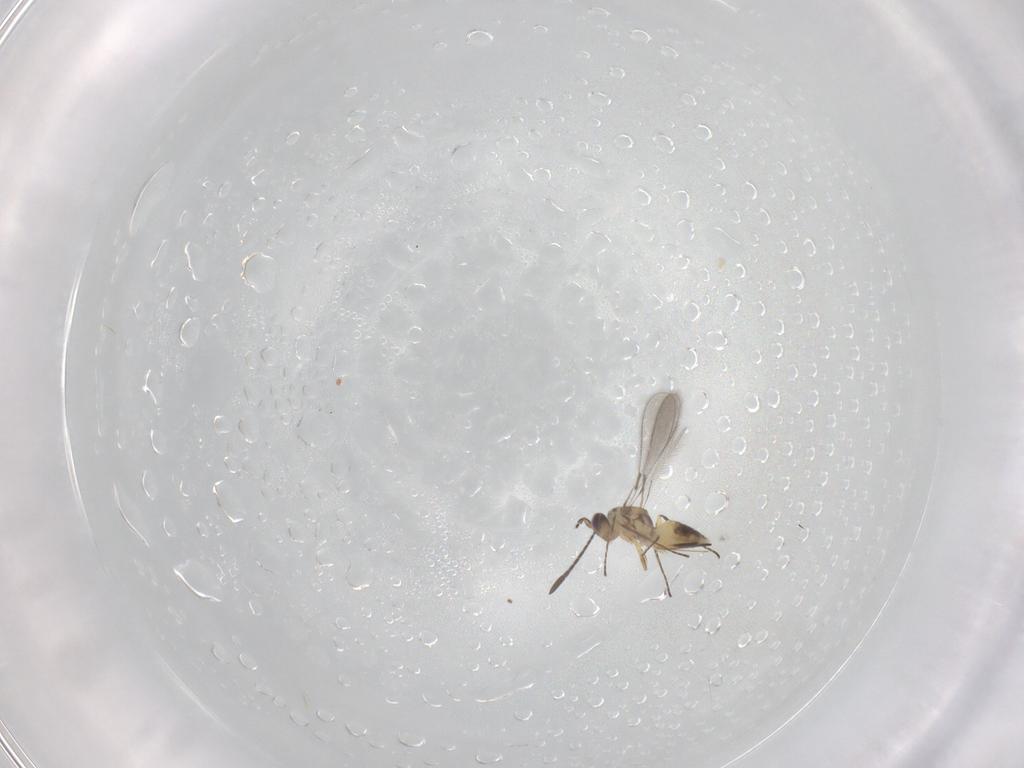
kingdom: Animalia
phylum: Arthropoda
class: Insecta
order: Hymenoptera
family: Mymaridae
